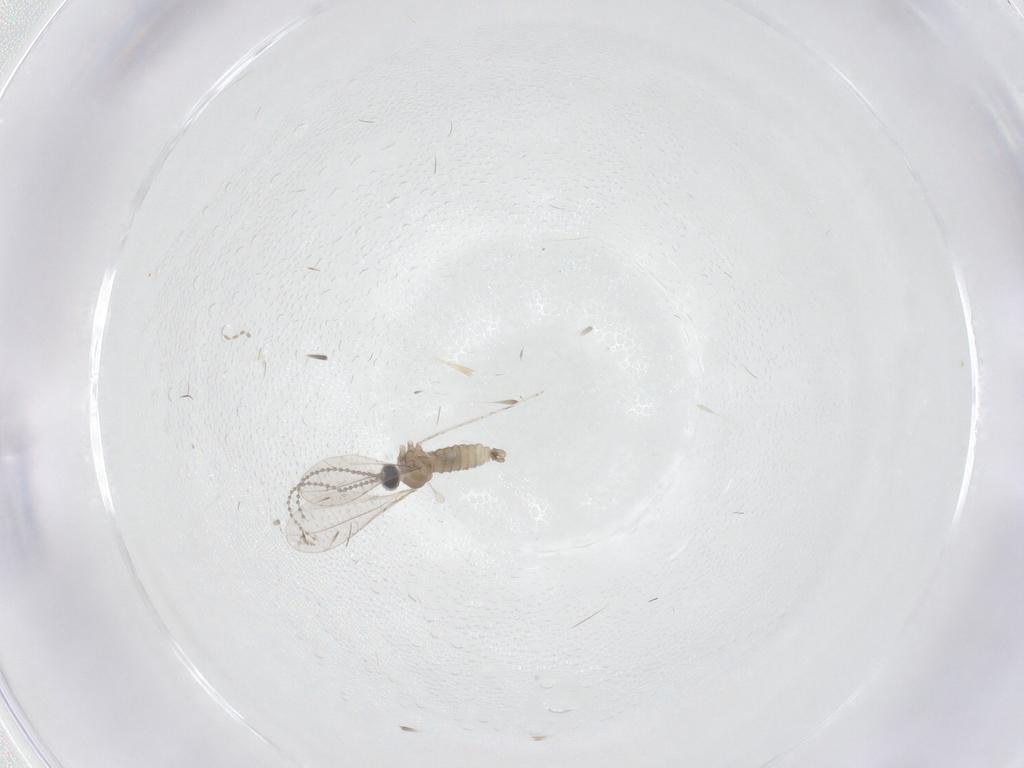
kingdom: Animalia
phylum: Arthropoda
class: Insecta
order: Diptera
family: Cecidomyiidae
